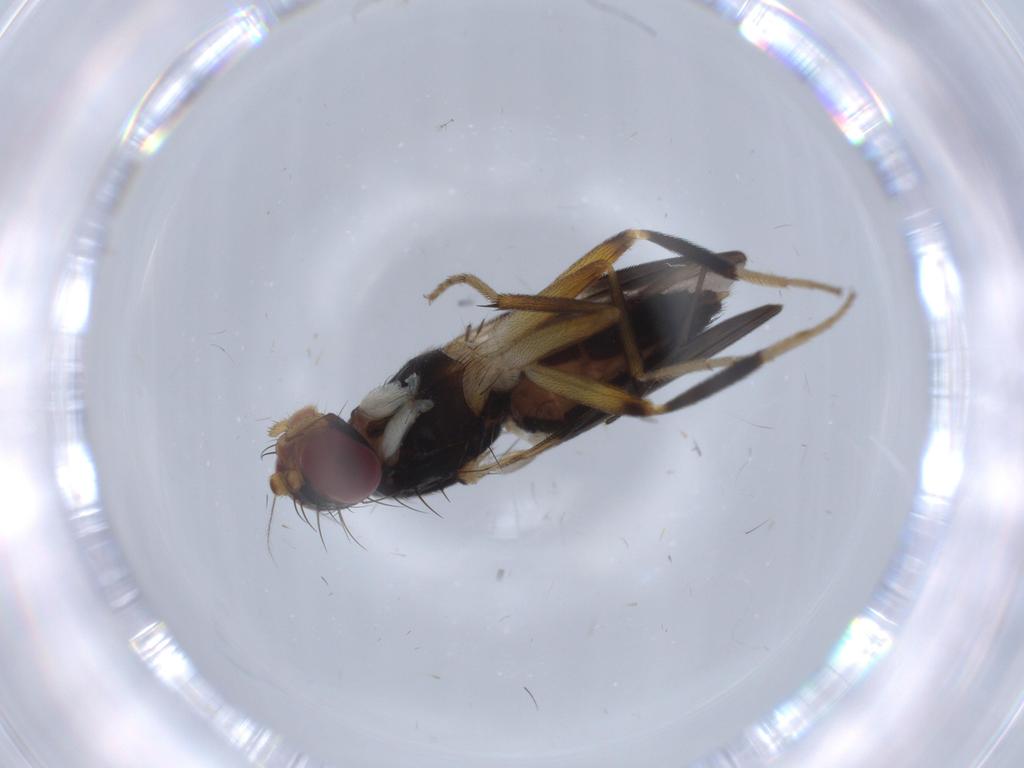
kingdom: Animalia
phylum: Arthropoda
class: Insecta
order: Diptera
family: Chironomidae
